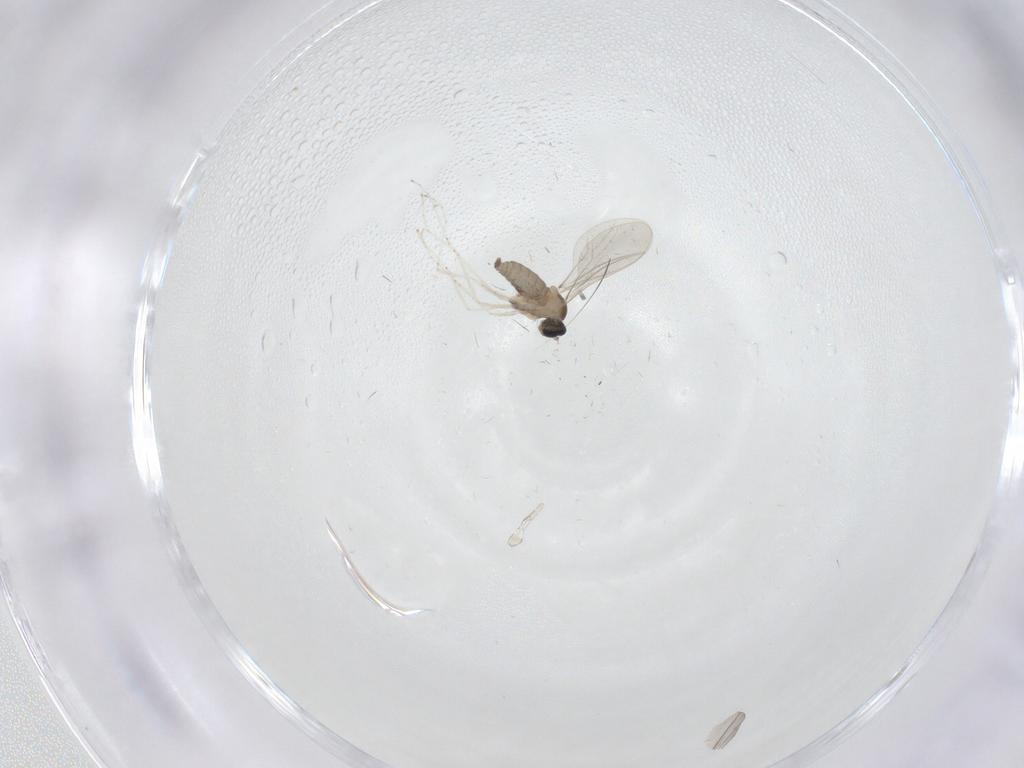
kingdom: Animalia
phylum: Arthropoda
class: Insecta
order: Diptera
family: Cecidomyiidae
